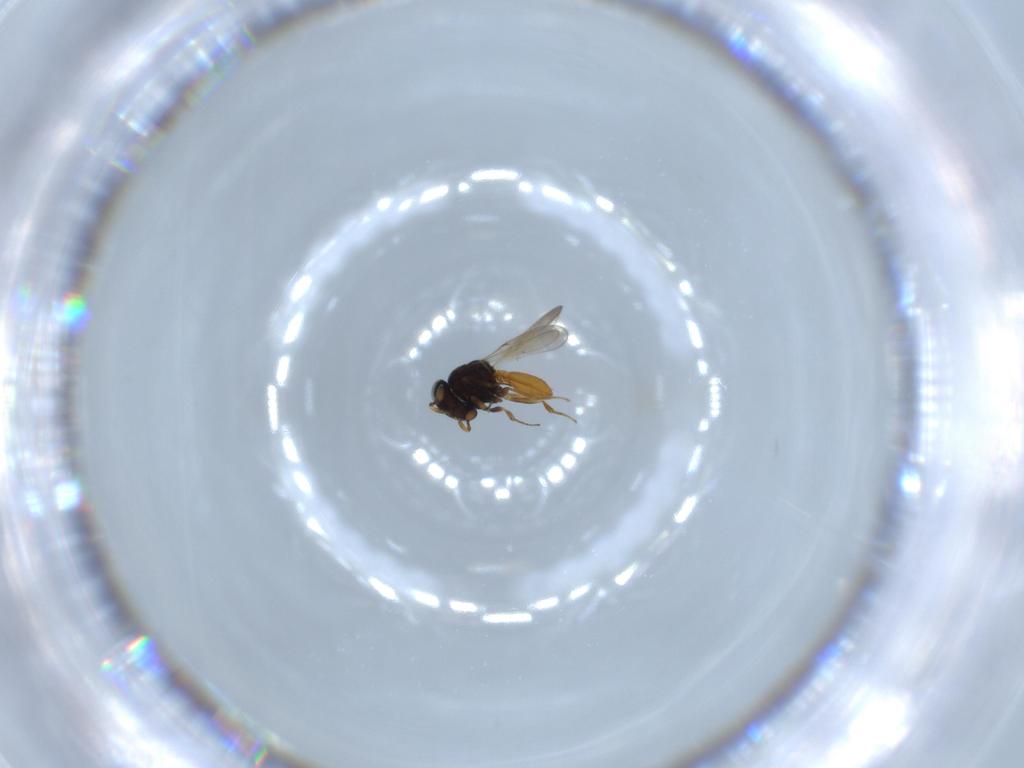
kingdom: Animalia
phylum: Arthropoda
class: Insecta
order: Hymenoptera
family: Scelionidae
